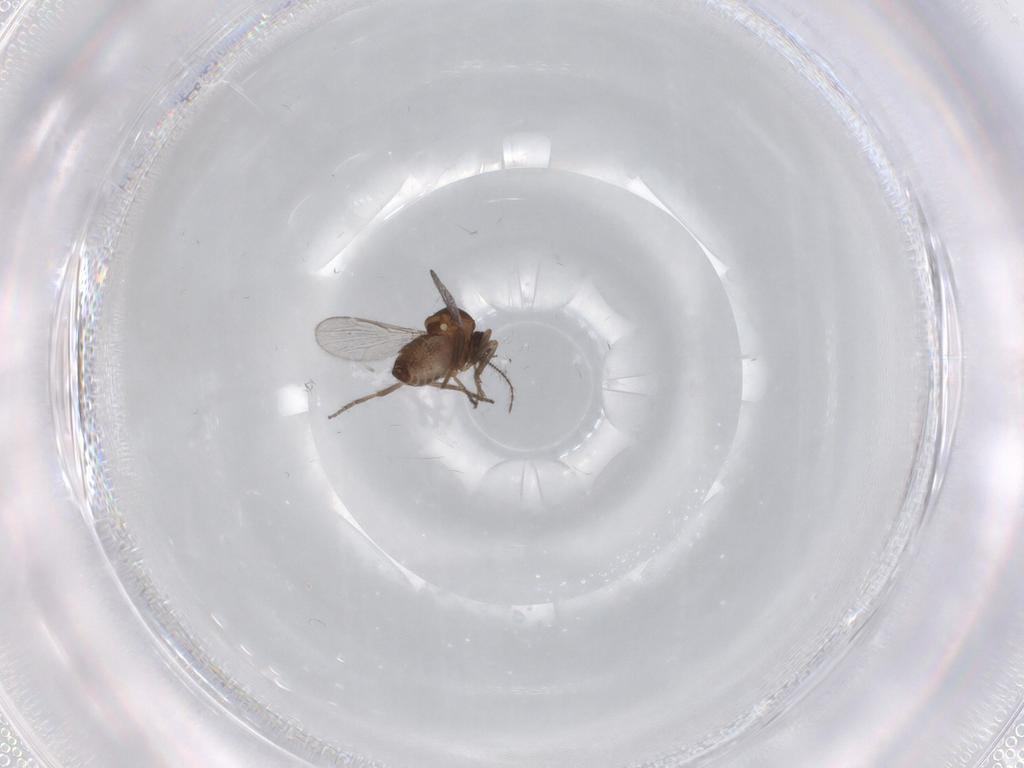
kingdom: Animalia
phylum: Arthropoda
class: Insecta
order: Diptera
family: Ceratopogonidae
